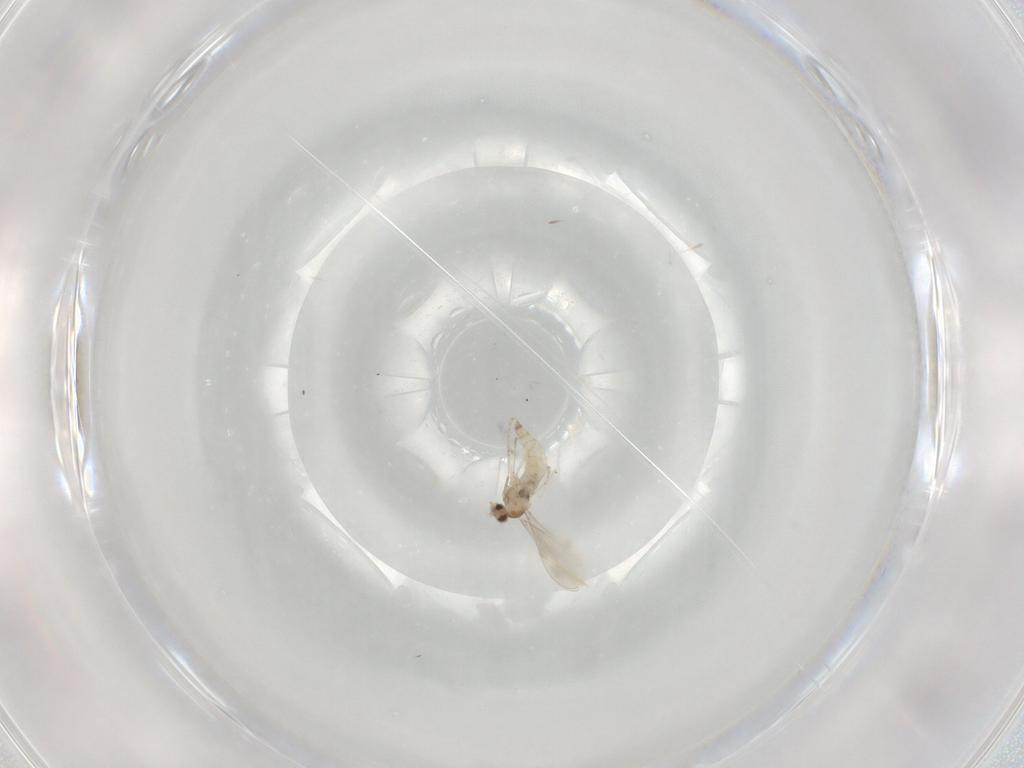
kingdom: Animalia
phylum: Arthropoda
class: Insecta
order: Diptera
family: Cecidomyiidae
